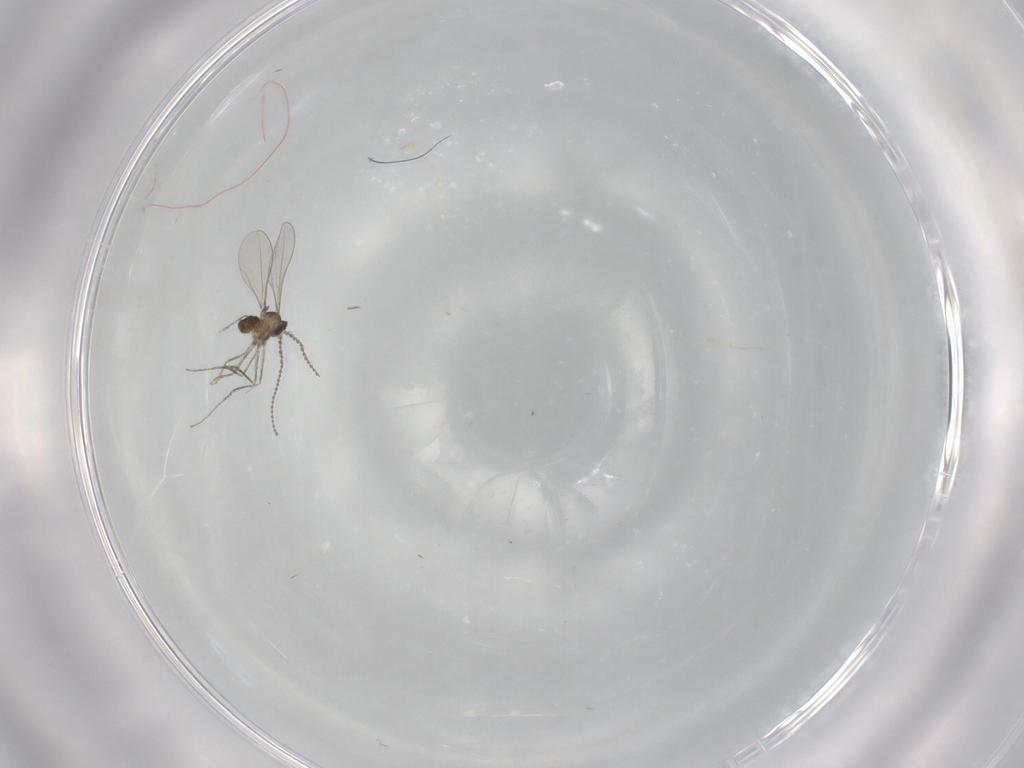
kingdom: Animalia
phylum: Arthropoda
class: Insecta
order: Diptera
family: Cecidomyiidae
